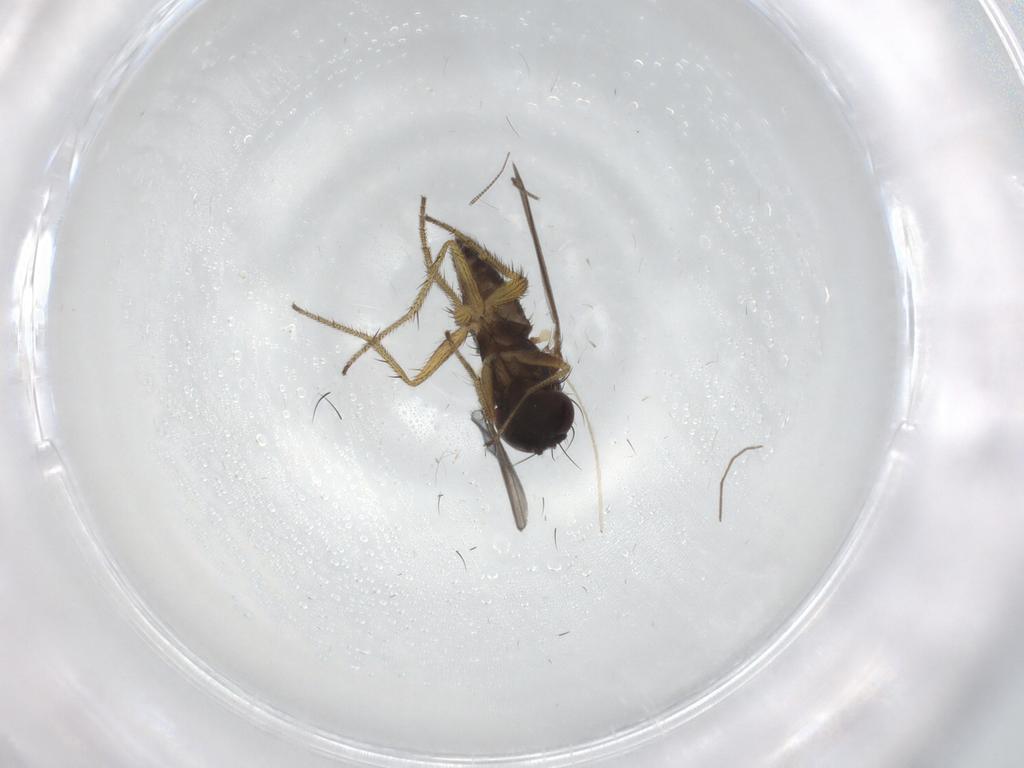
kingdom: Animalia
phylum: Arthropoda
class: Insecta
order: Diptera
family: Chironomidae
